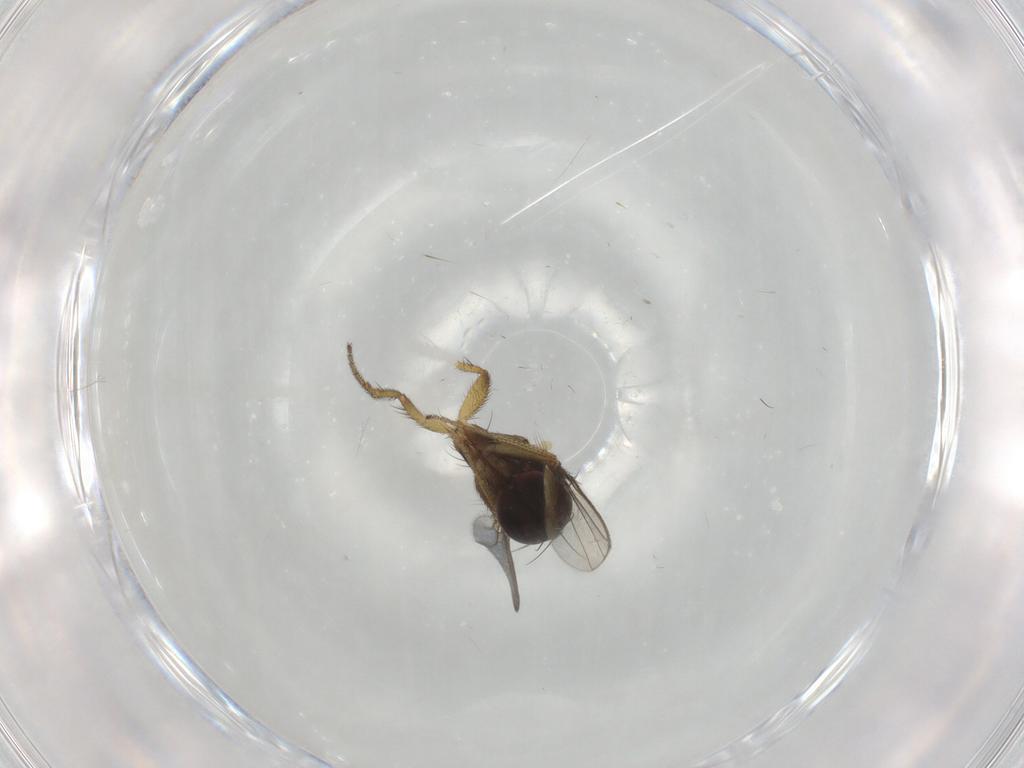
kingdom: Animalia
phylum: Arthropoda
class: Insecta
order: Diptera
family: Dolichopodidae
